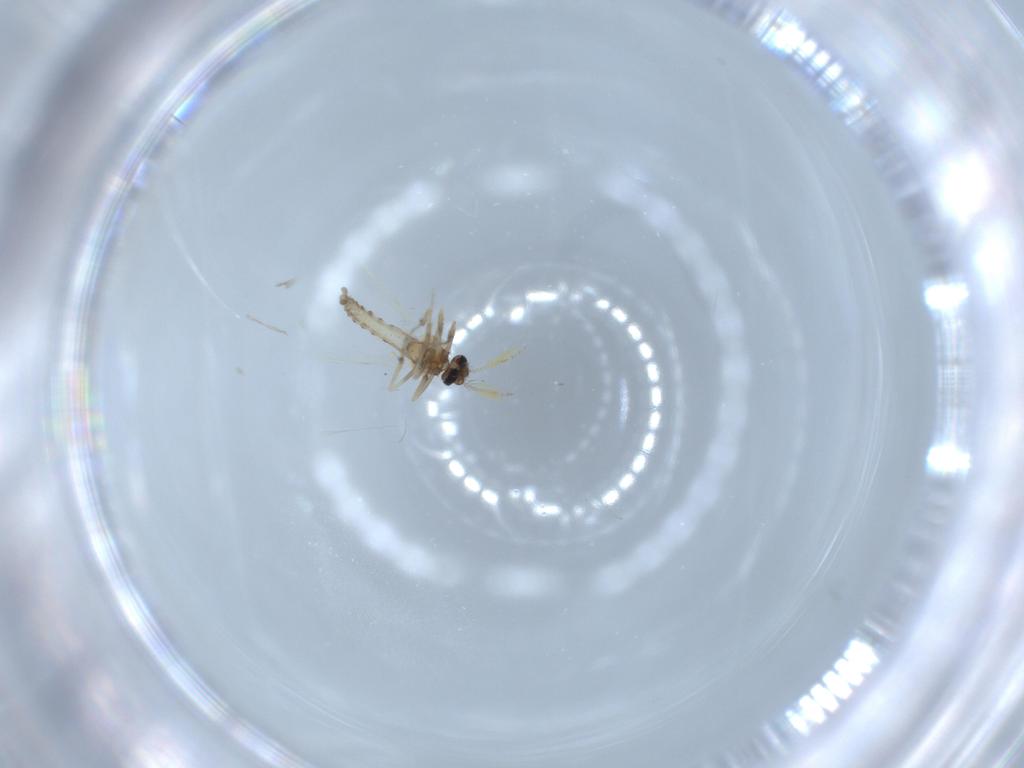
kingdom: Animalia
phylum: Arthropoda
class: Insecta
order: Diptera
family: Ceratopogonidae
